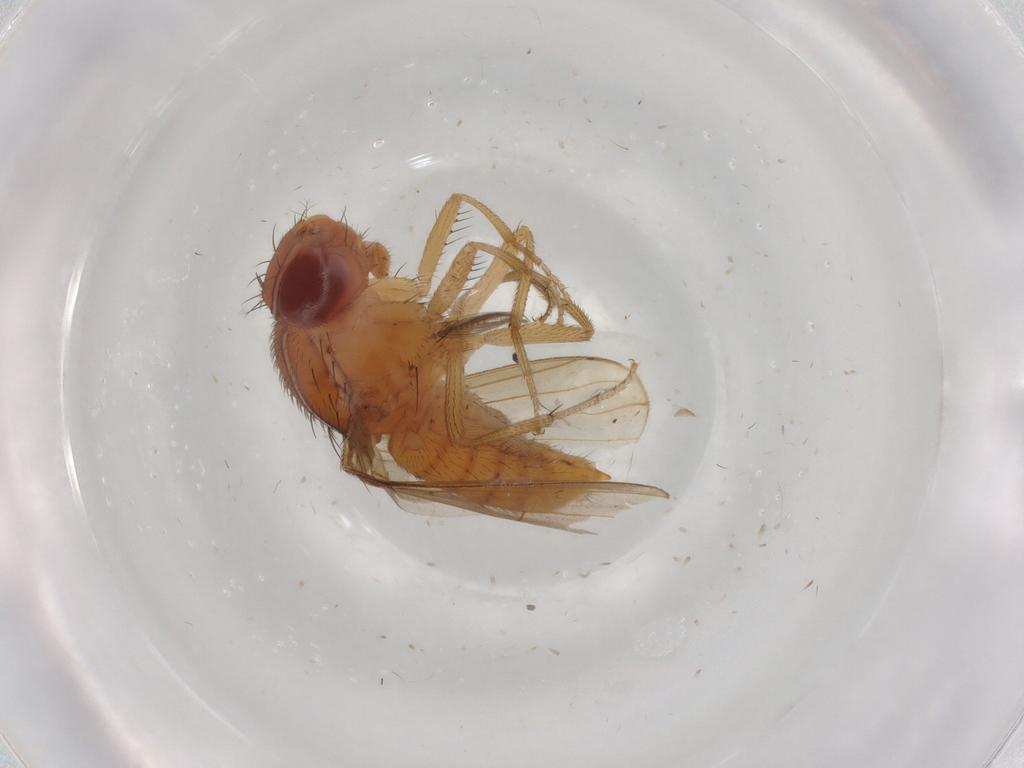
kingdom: Animalia
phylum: Arthropoda
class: Insecta
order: Diptera
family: Drosophilidae
